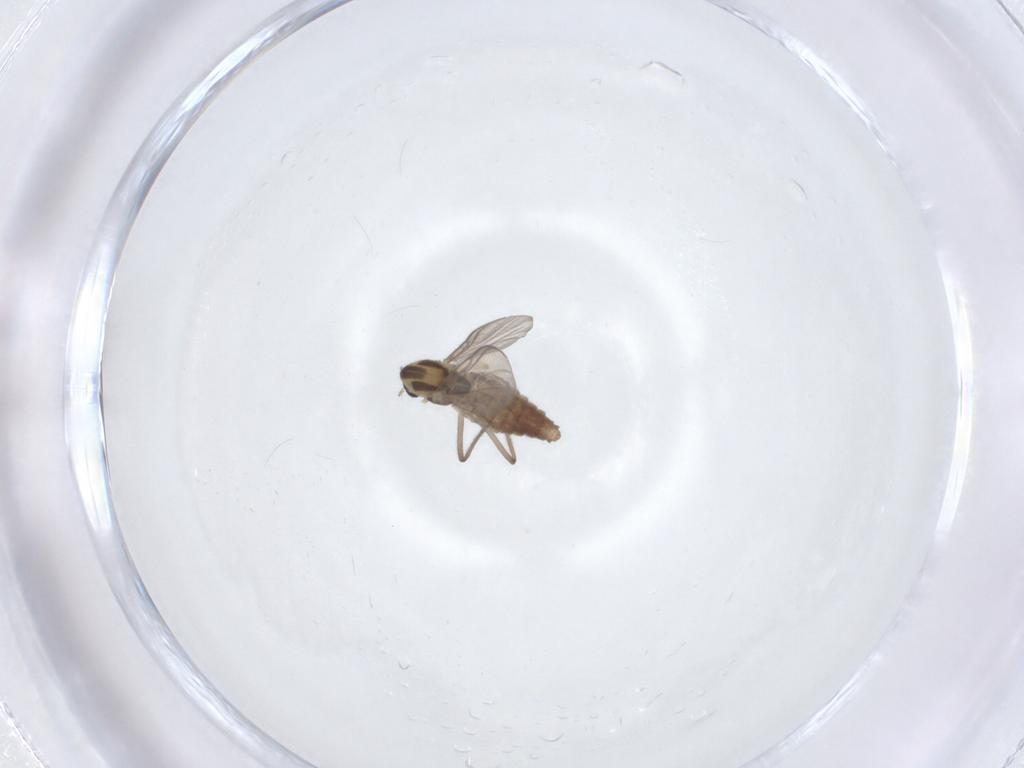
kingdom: Animalia
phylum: Arthropoda
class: Insecta
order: Diptera
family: Chironomidae
